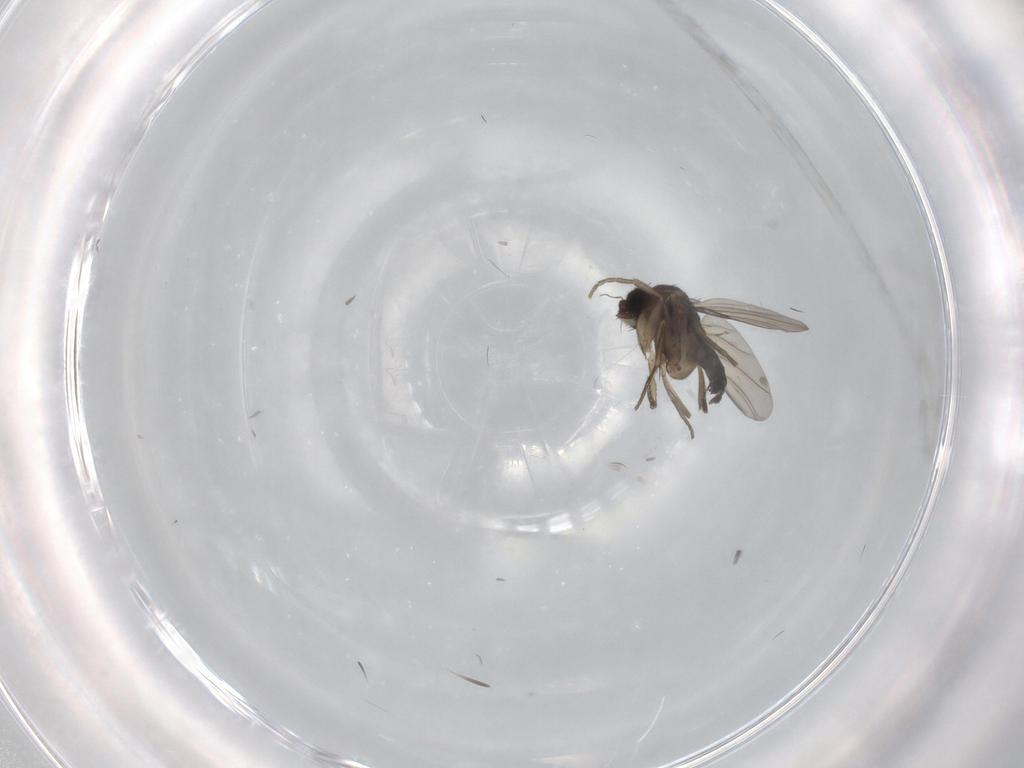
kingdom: Animalia
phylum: Arthropoda
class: Insecta
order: Diptera
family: Phoridae
